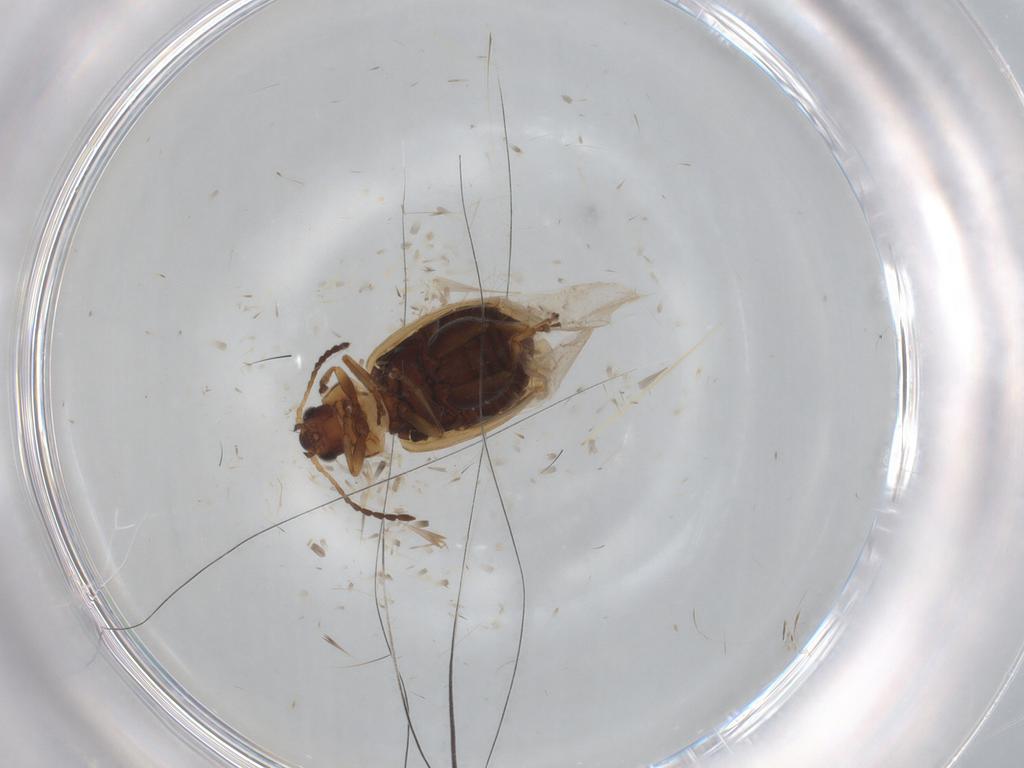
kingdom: Animalia
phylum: Arthropoda
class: Insecta
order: Coleoptera
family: Chrysomelidae
